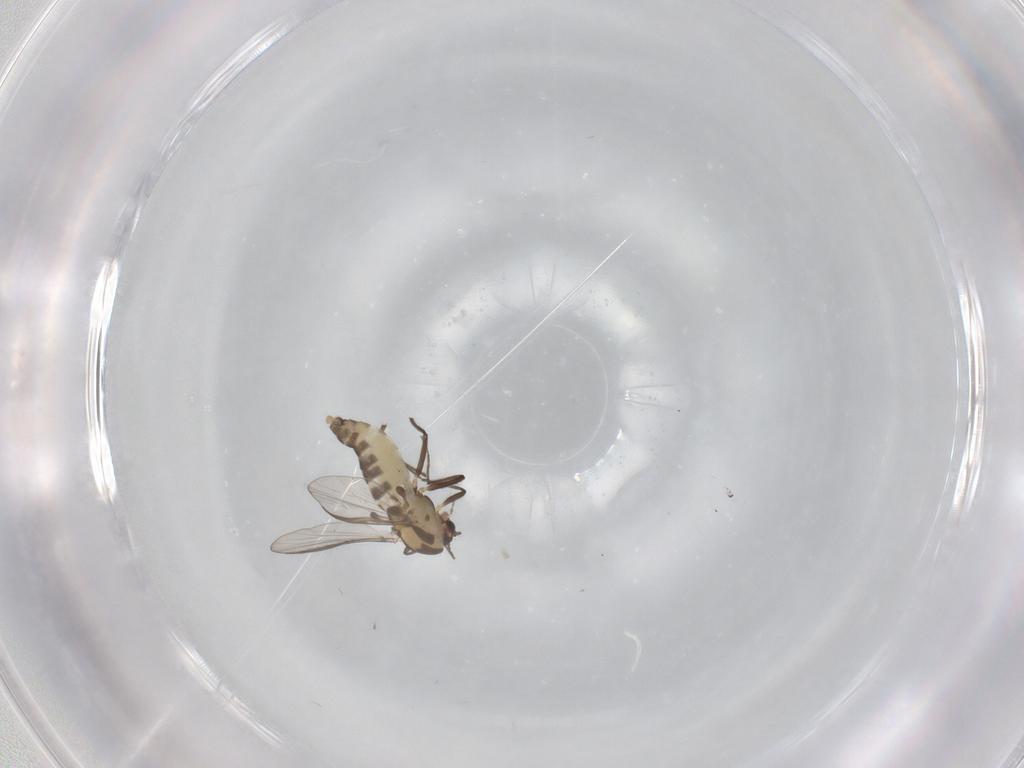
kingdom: Animalia
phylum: Arthropoda
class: Insecta
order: Diptera
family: Chironomidae
